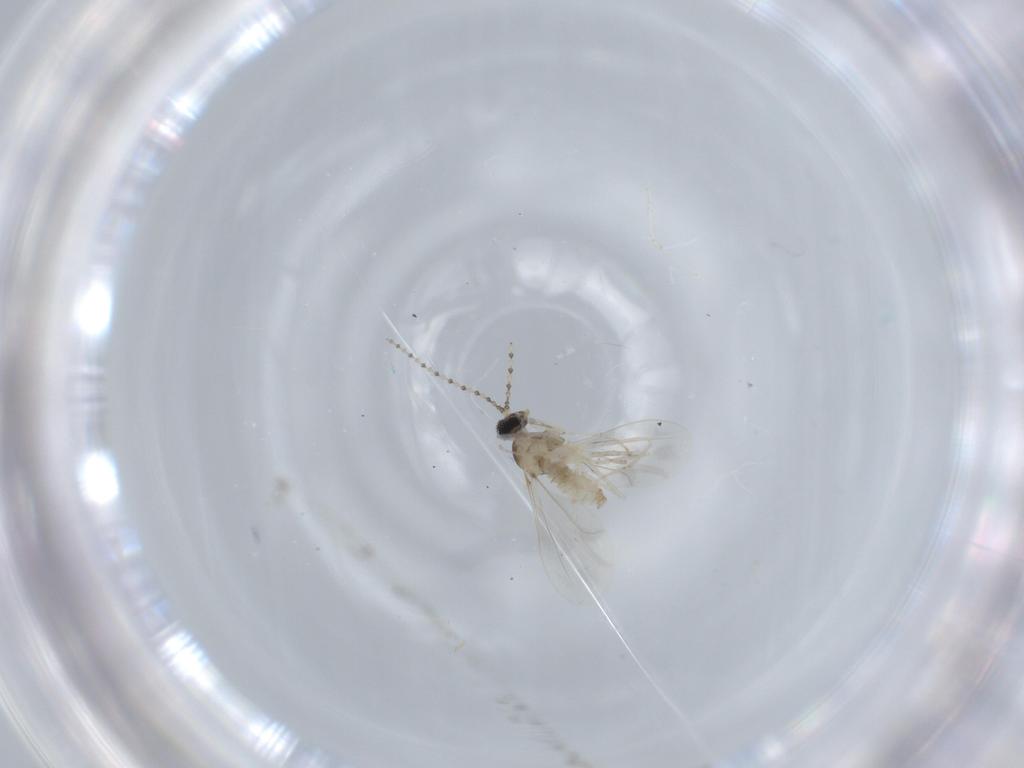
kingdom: Animalia
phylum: Arthropoda
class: Insecta
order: Diptera
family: Cecidomyiidae
